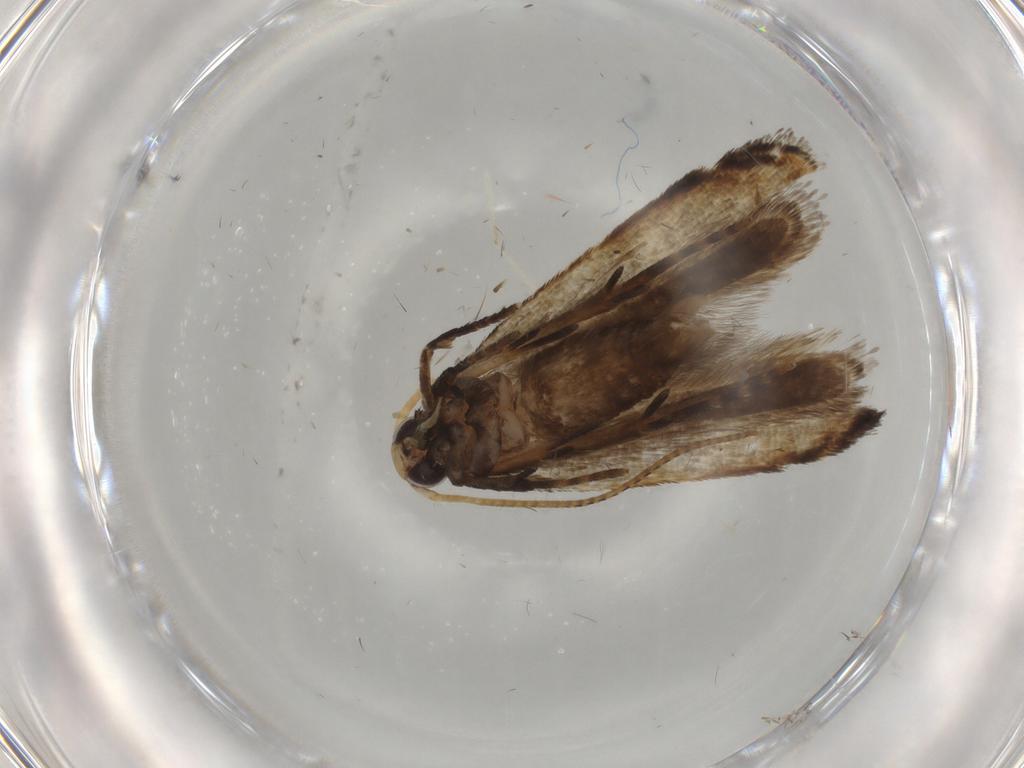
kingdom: Animalia
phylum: Arthropoda
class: Insecta
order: Lepidoptera
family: Gelechiidae
